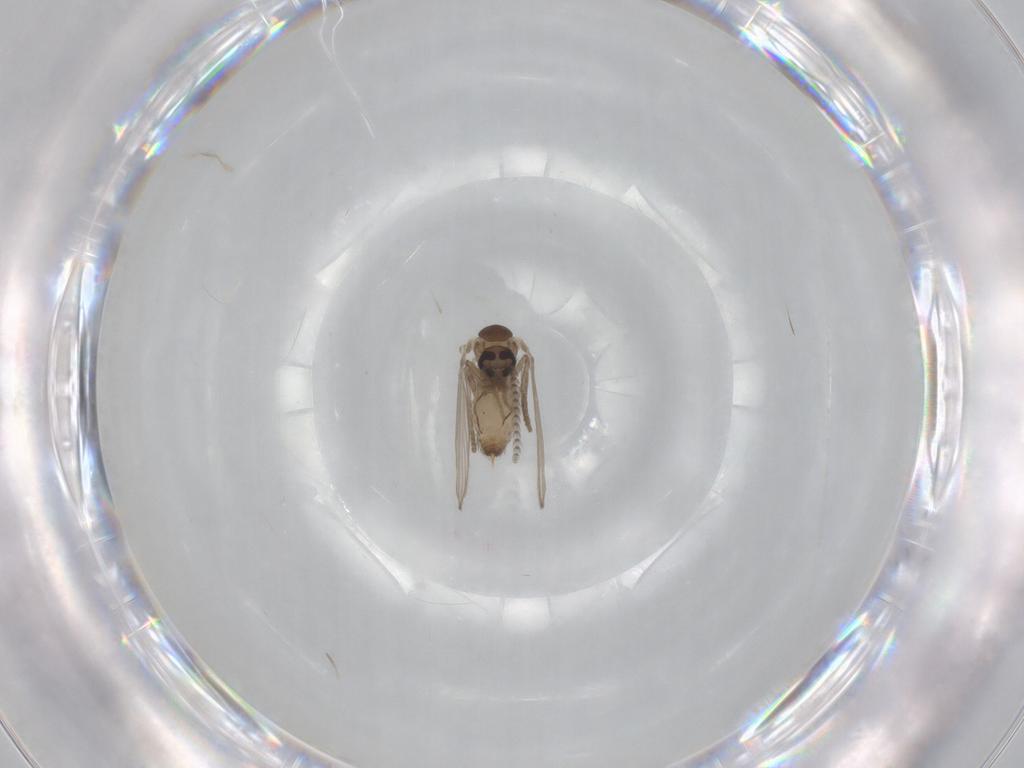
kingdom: Animalia
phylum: Arthropoda
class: Insecta
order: Diptera
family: Psychodidae
